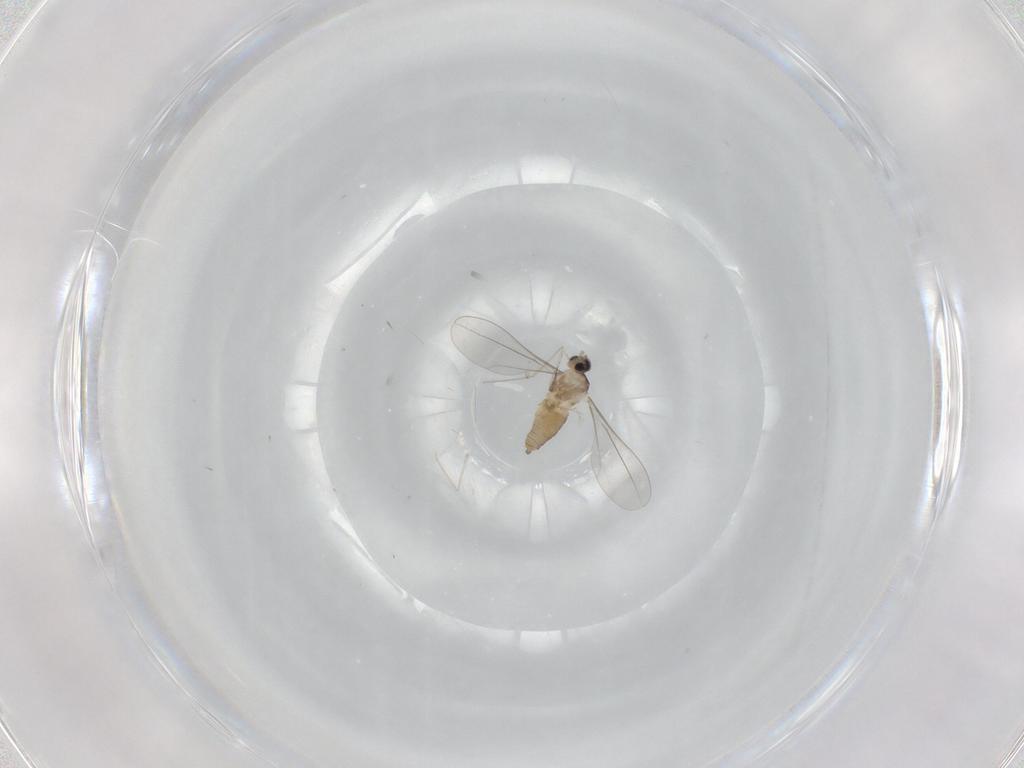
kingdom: Animalia
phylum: Arthropoda
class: Insecta
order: Diptera
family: Cecidomyiidae
